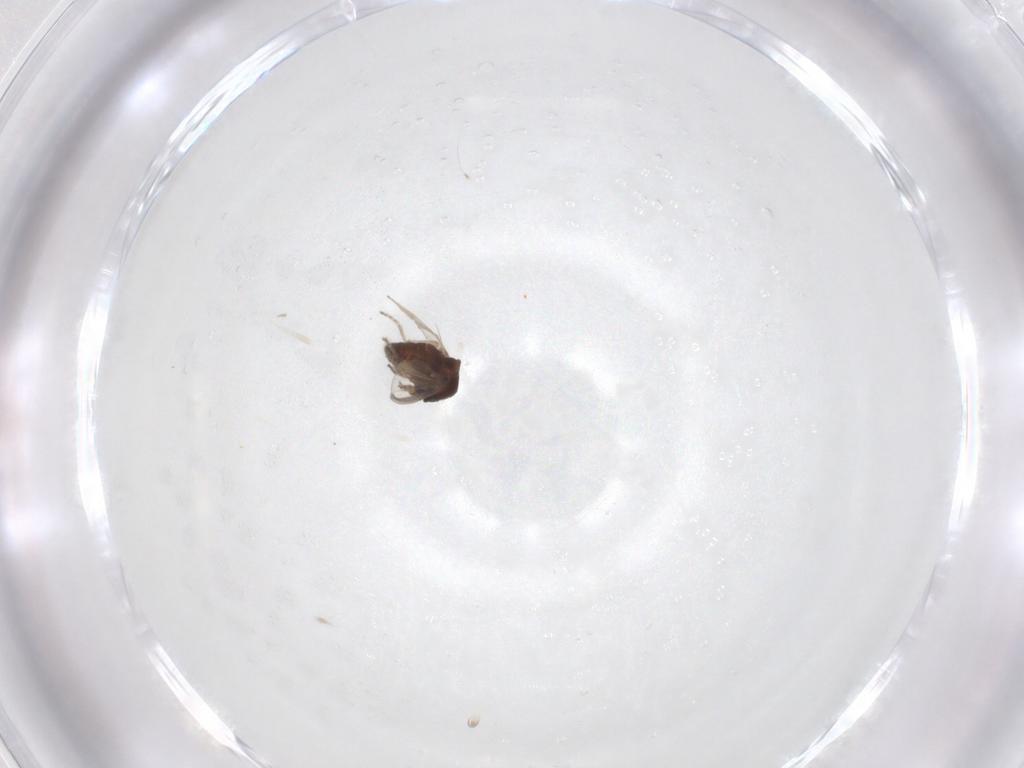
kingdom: Animalia
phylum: Arthropoda
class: Insecta
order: Diptera
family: Ceratopogonidae
